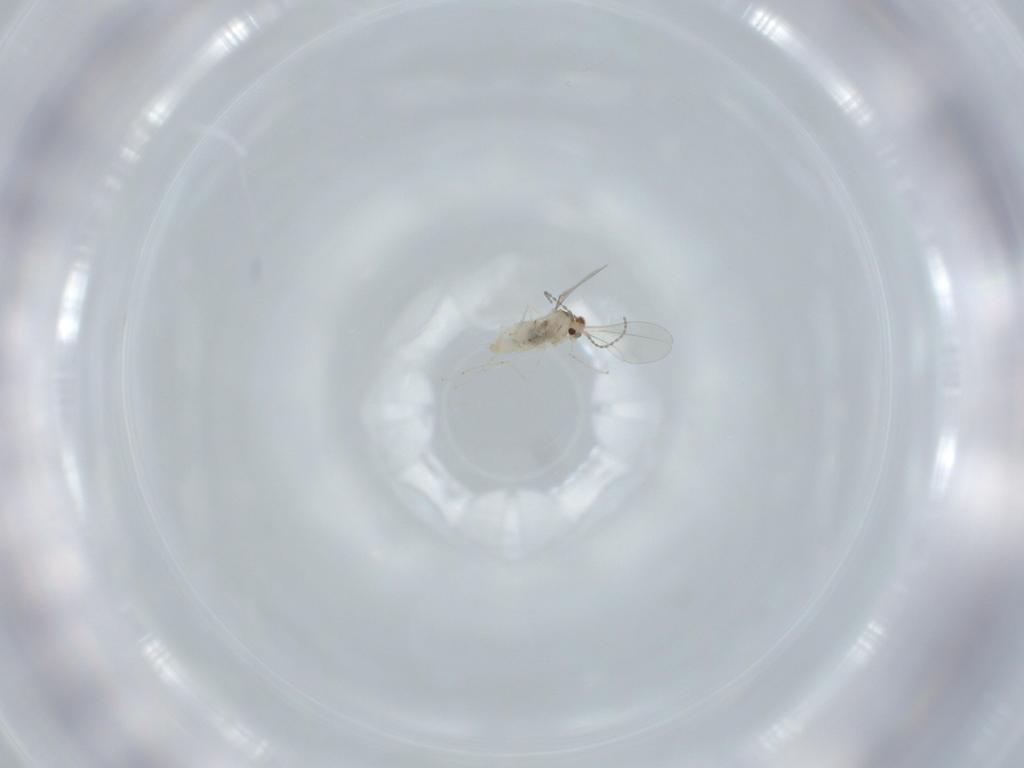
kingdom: Animalia
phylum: Arthropoda
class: Insecta
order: Diptera
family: Cecidomyiidae
